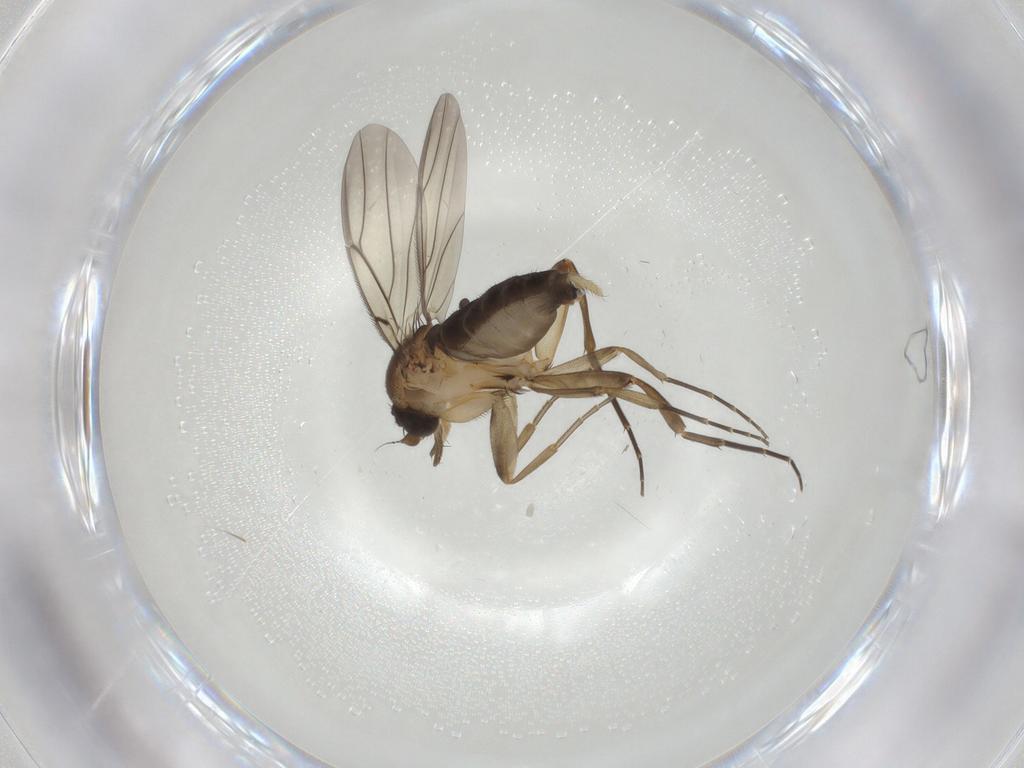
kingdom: Animalia
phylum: Arthropoda
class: Insecta
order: Diptera
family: Phoridae
